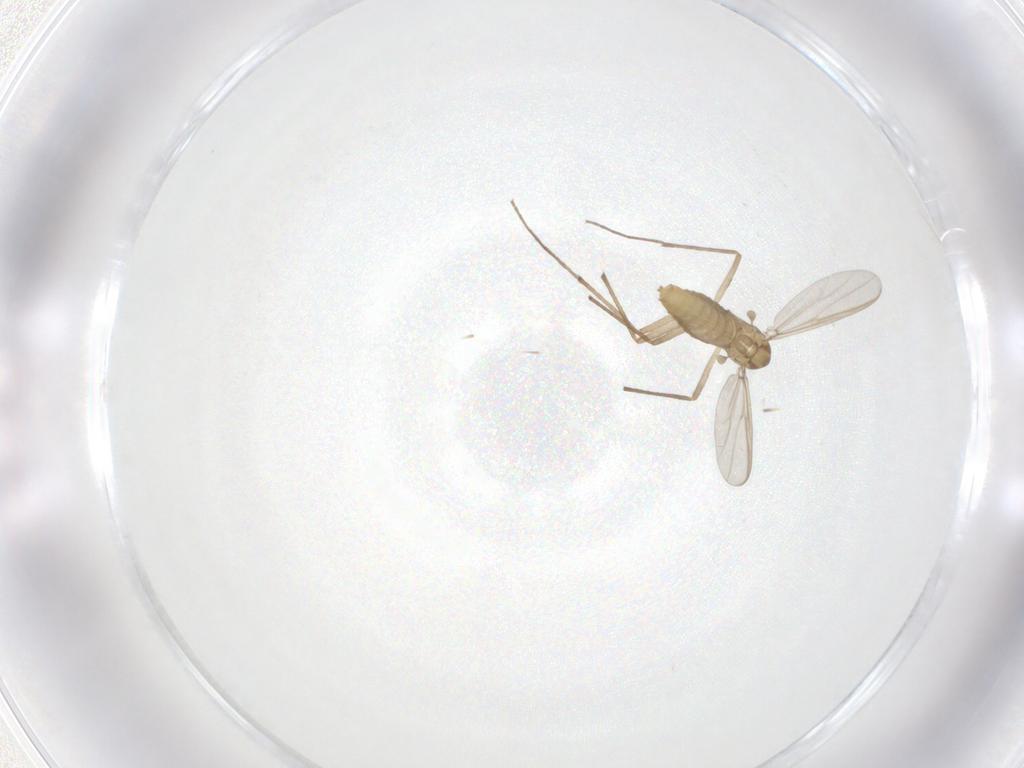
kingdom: Animalia
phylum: Arthropoda
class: Insecta
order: Diptera
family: Chironomidae
